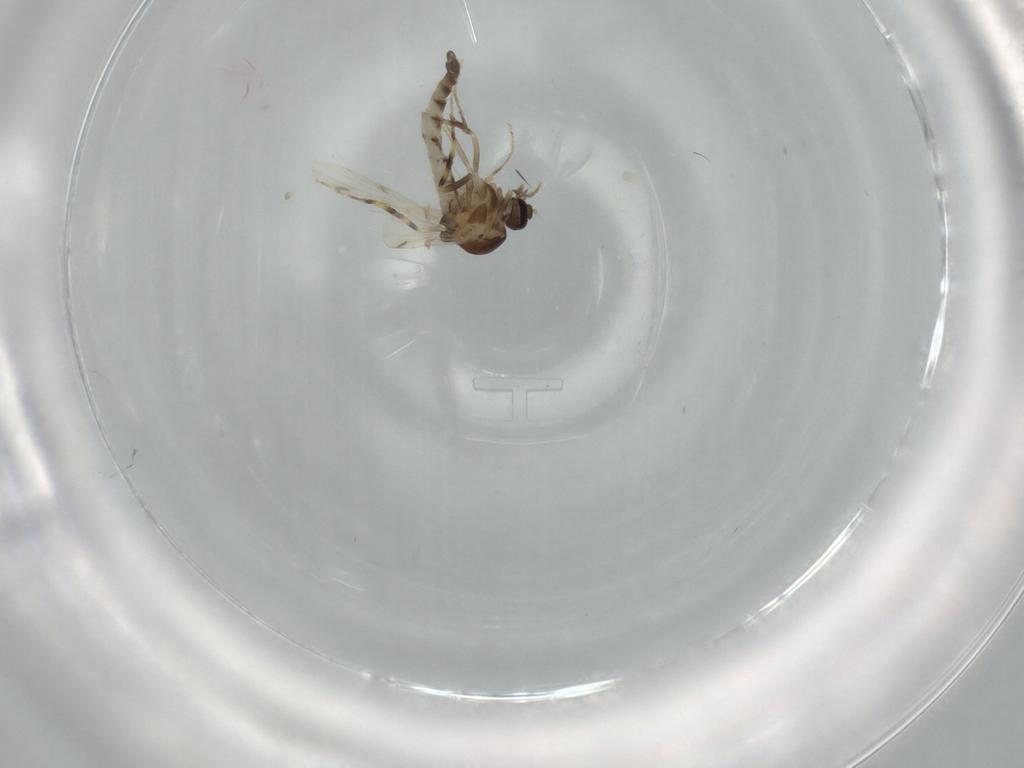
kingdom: Animalia
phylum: Arthropoda
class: Insecta
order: Diptera
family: Ceratopogonidae
